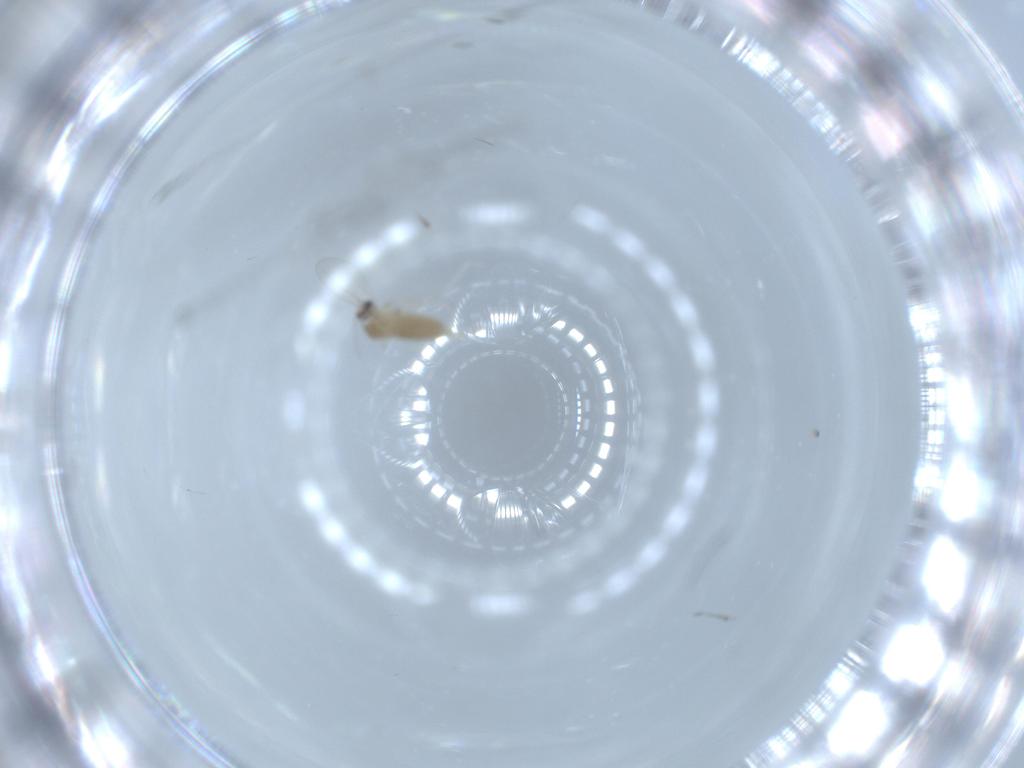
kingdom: Animalia
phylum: Arthropoda
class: Insecta
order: Diptera
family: Cecidomyiidae
